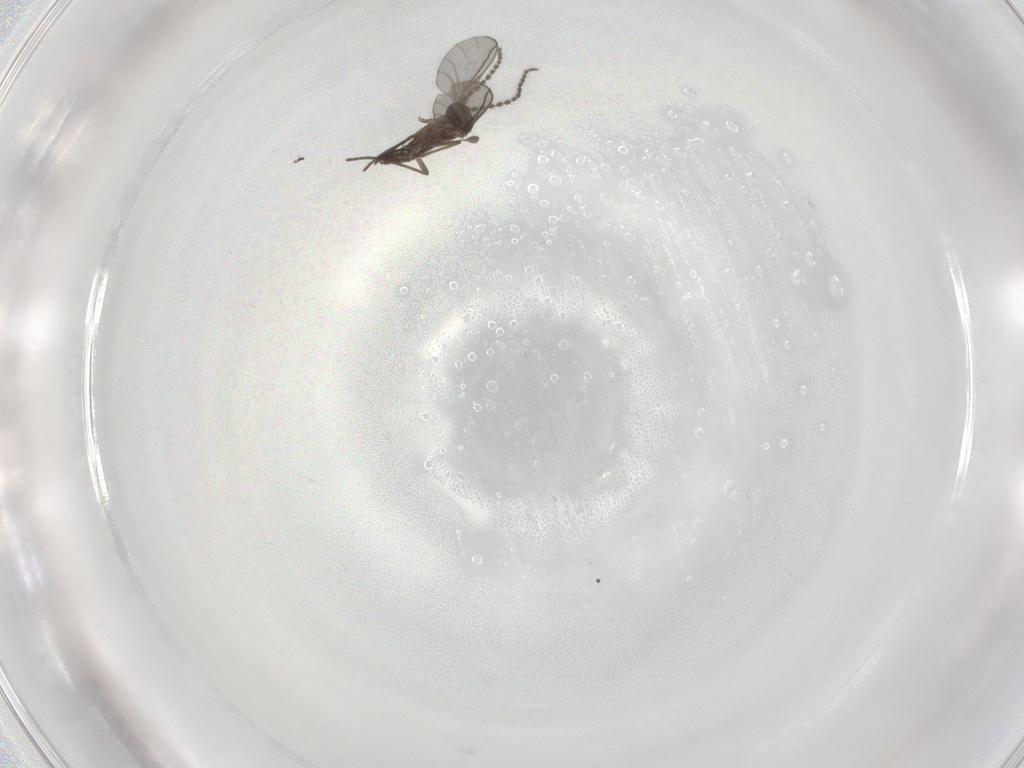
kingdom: Animalia
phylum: Arthropoda
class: Insecta
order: Diptera
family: Chironomidae
